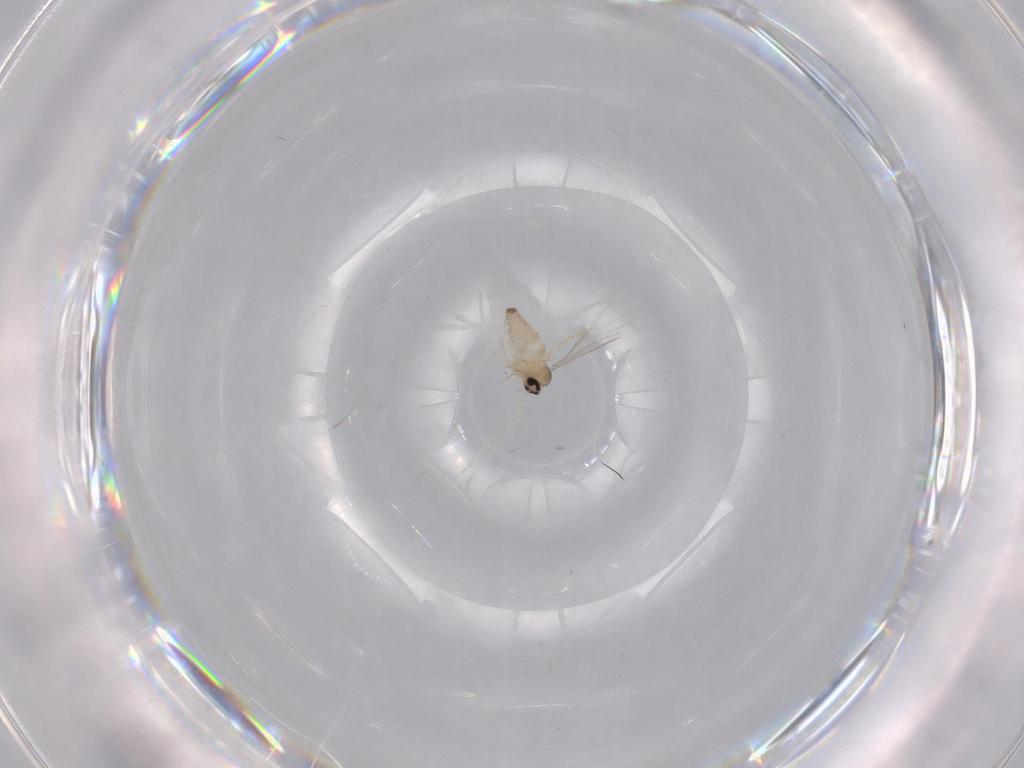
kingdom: Animalia
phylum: Arthropoda
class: Insecta
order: Diptera
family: Cecidomyiidae
